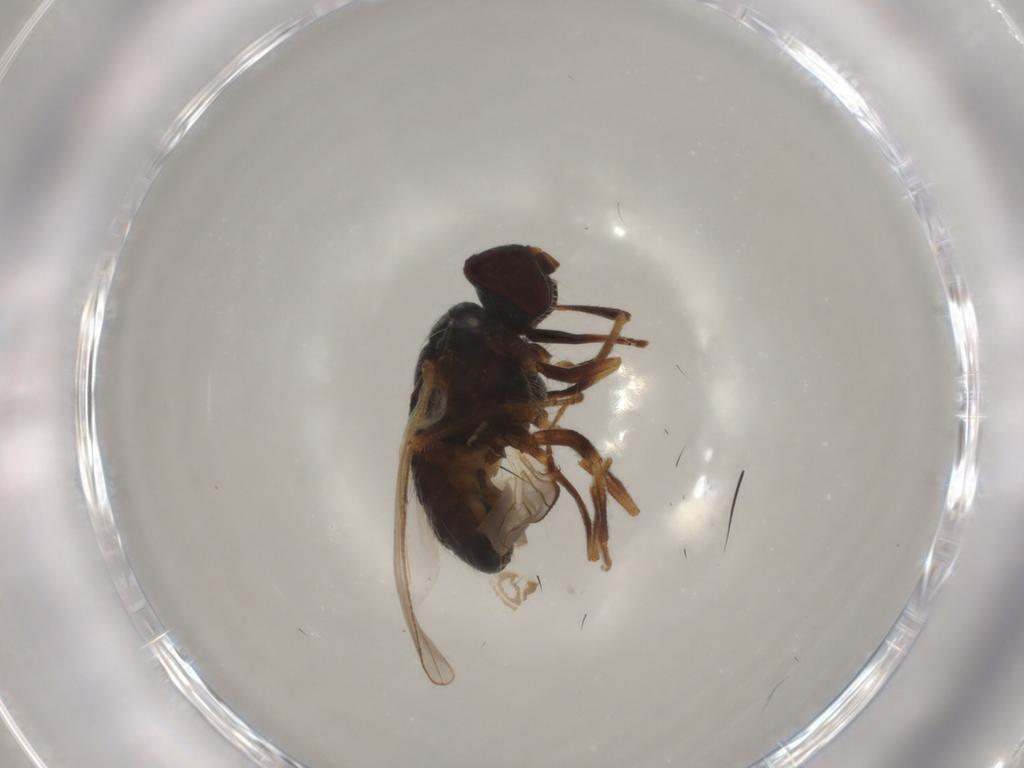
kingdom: Animalia
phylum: Arthropoda
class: Insecta
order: Diptera
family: Muscidae
